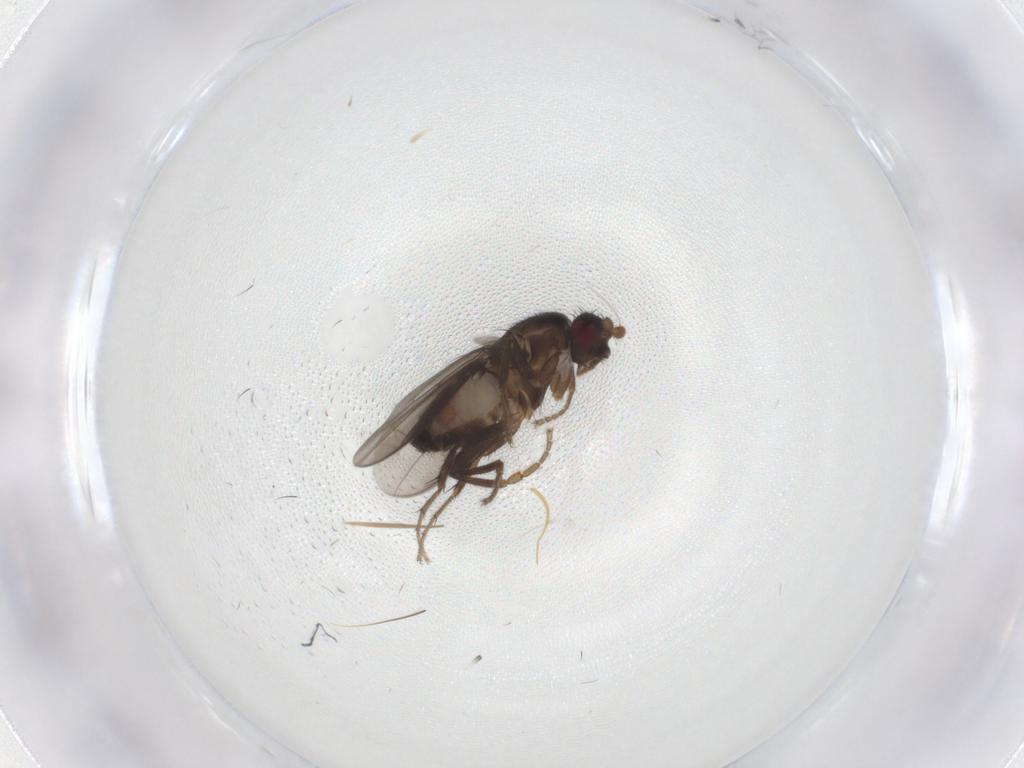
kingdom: Animalia
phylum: Arthropoda
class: Insecta
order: Diptera
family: Sphaeroceridae
